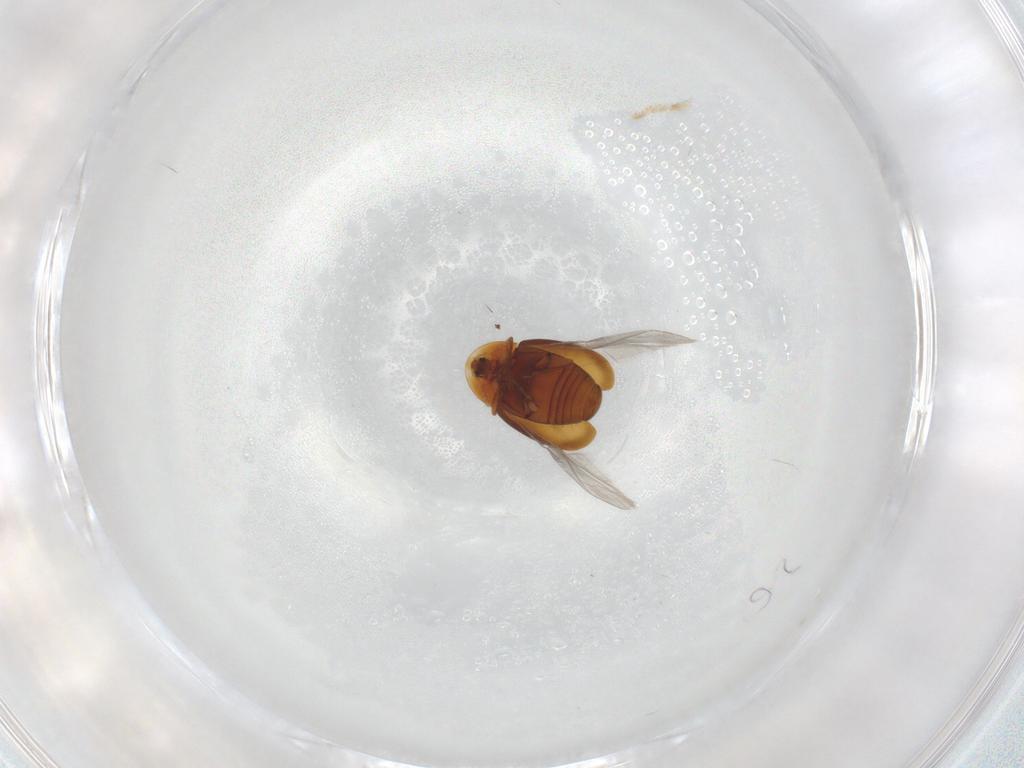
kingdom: Animalia
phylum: Arthropoda
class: Insecta
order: Coleoptera
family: Corylophidae
